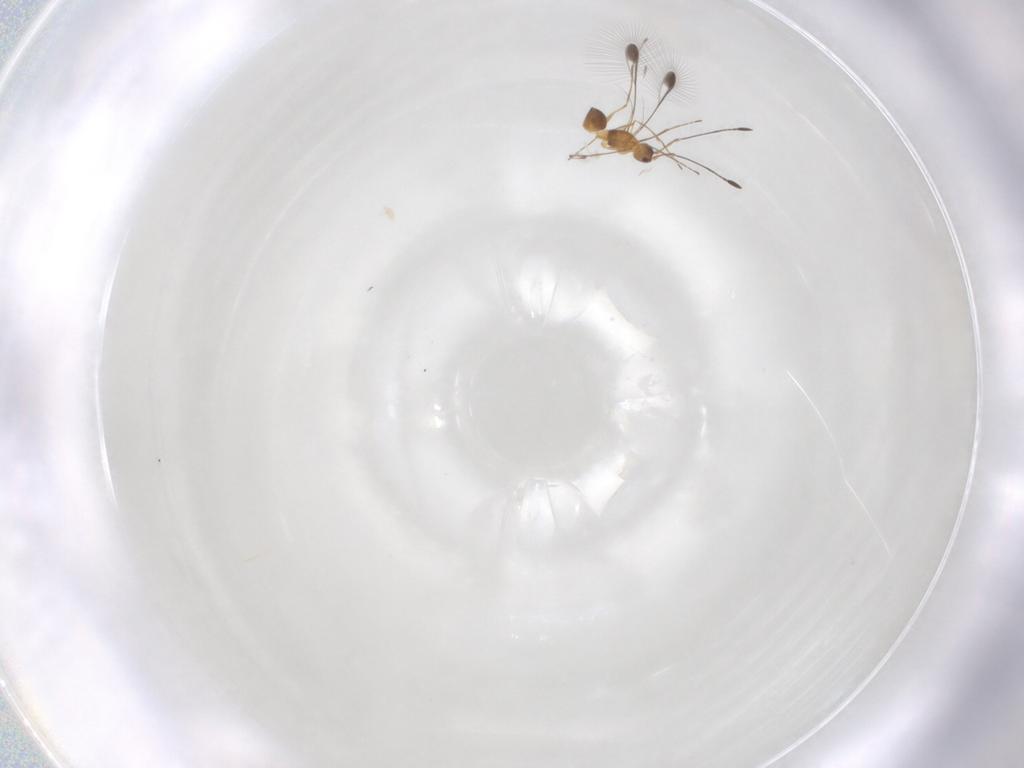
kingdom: Animalia
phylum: Arthropoda
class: Insecta
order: Hymenoptera
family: Mymaridae
